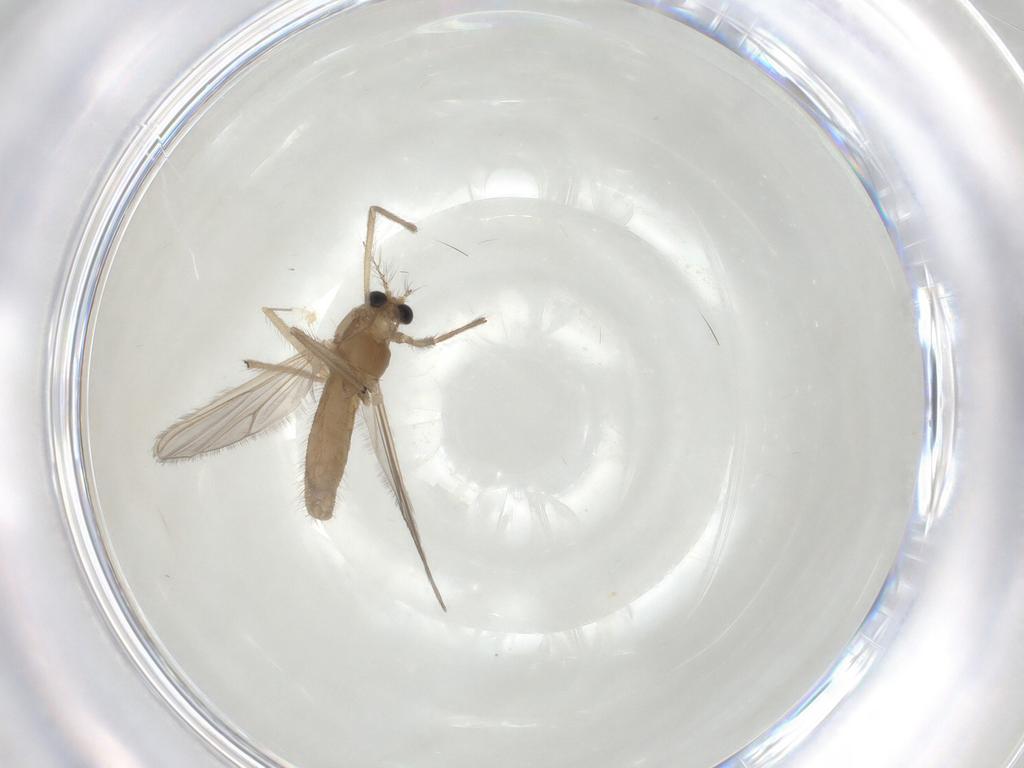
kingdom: Animalia
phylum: Arthropoda
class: Insecta
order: Diptera
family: Chironomidae
